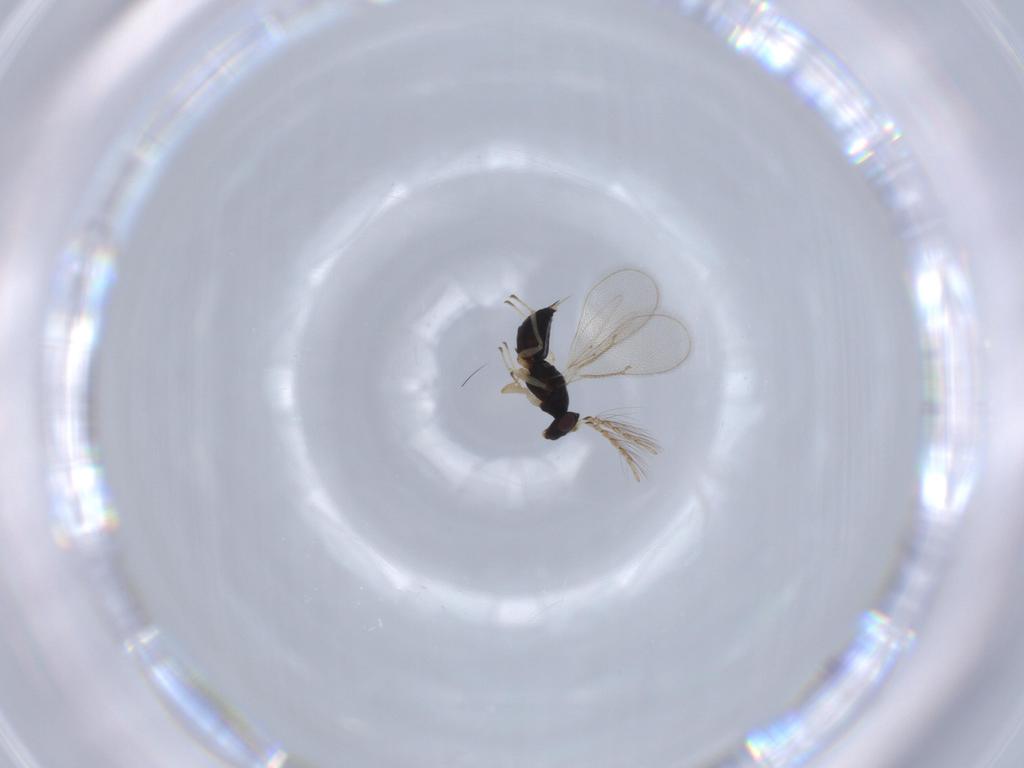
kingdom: Animalia
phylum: Arthropoda
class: Insecta
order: Hymenoptera
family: Eulophidae
